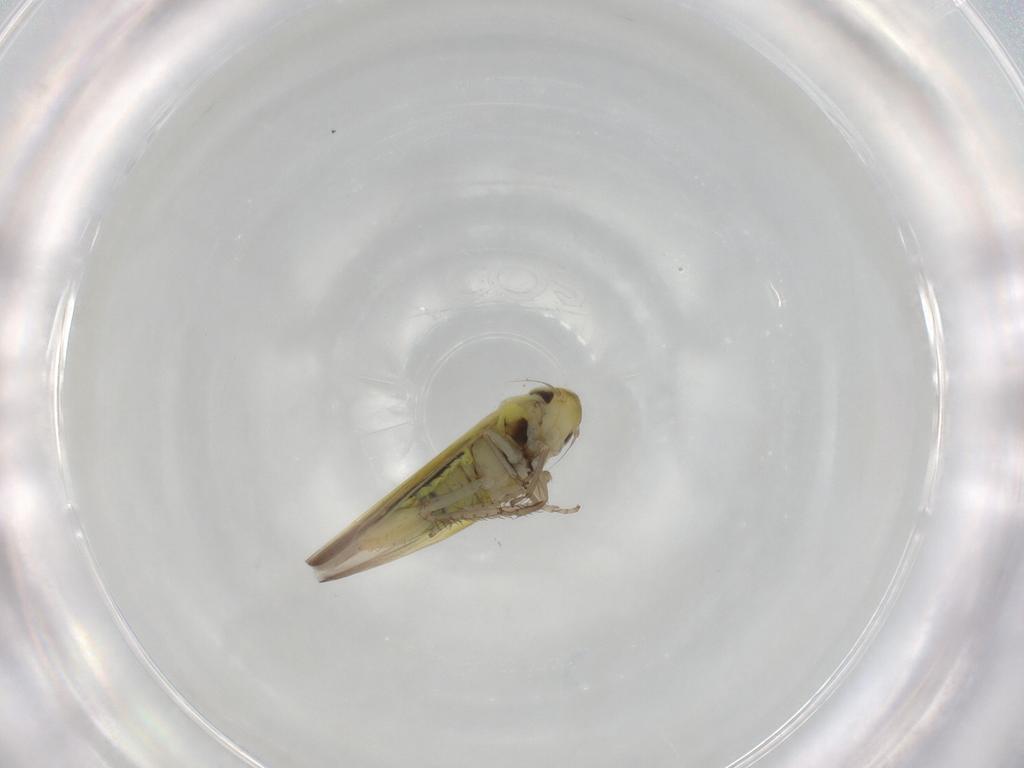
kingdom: Animalia
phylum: Arthropoda
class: Insecta
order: Hemiptera
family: Cicadellidae
